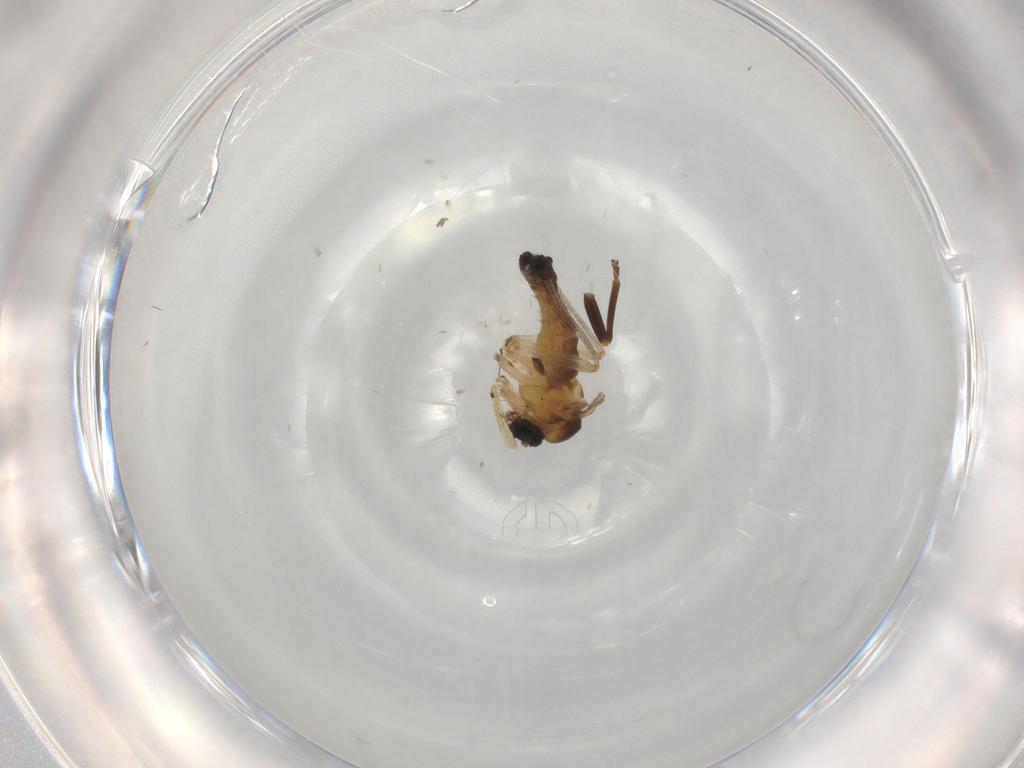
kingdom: Animalia
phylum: Arthropoda
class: Insecta
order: Diptera
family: Sciaridae
